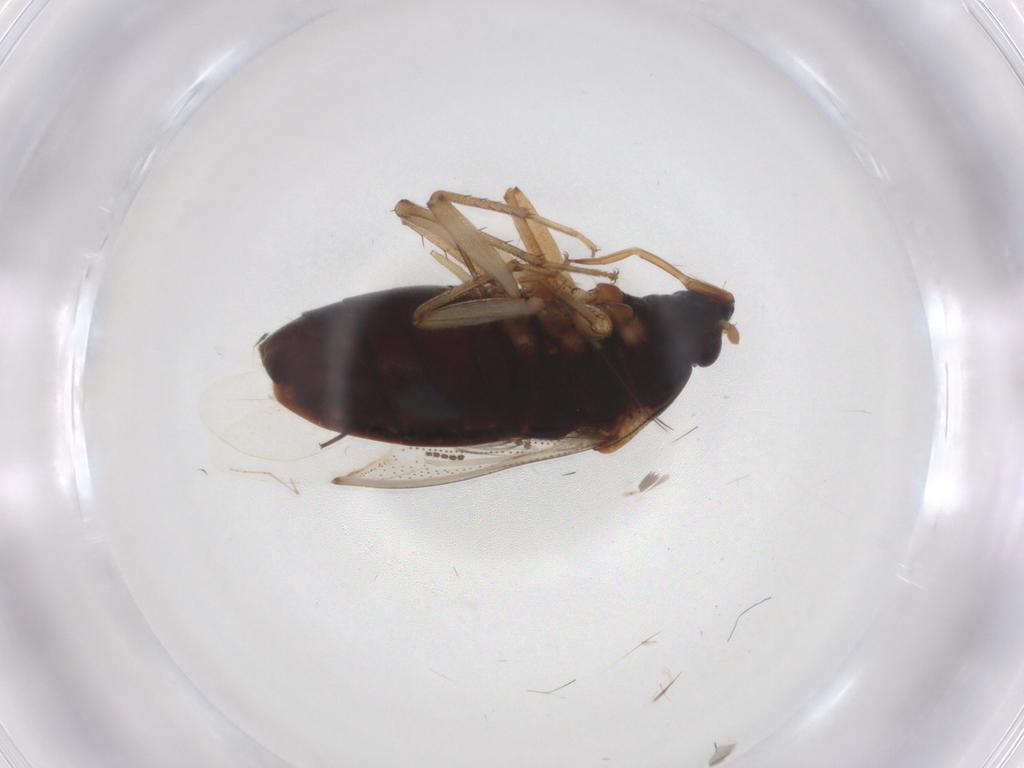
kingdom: Animalia
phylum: Arthropoda
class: Insecta
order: Hemiptera
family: Rhyparochromidae
